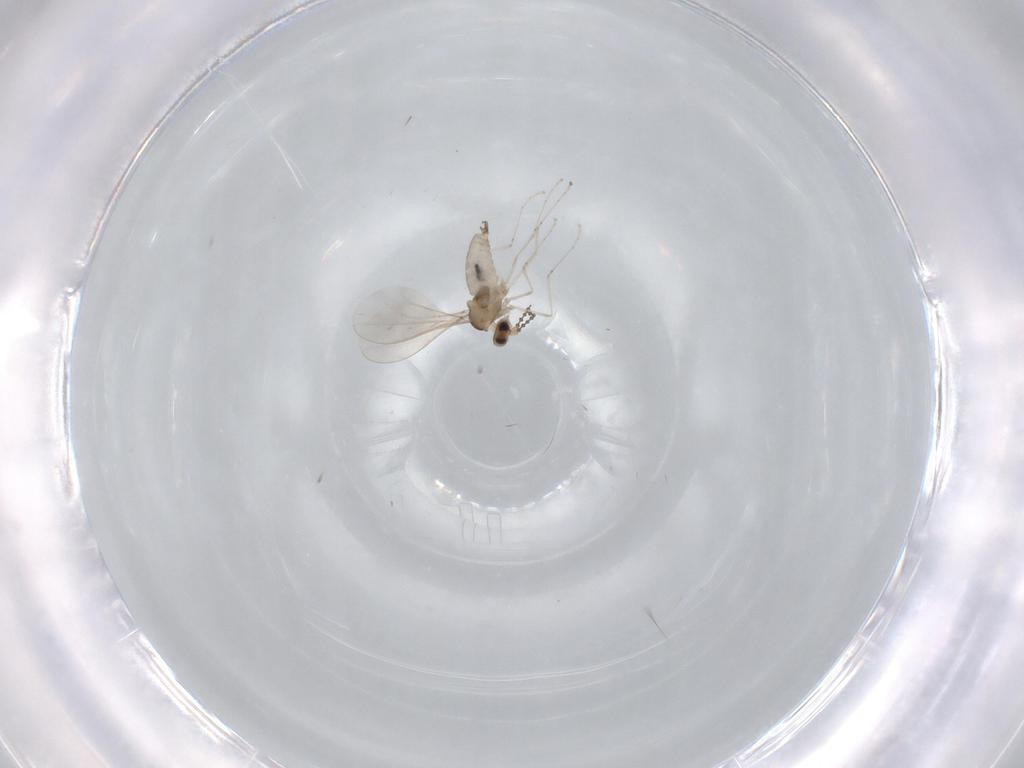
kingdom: Animalia
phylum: Arthropoda
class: Insecta
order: Diptera
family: Cecidomyiidae
